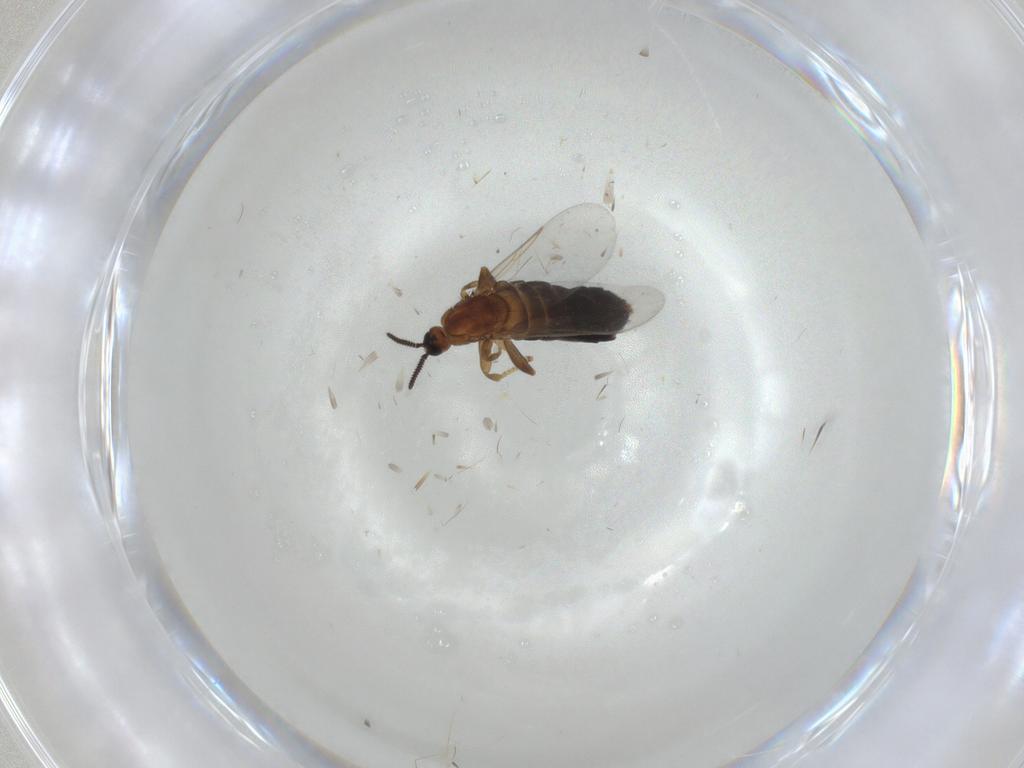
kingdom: Animalia
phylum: Arthropoda
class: Insecta
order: Diptera
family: Scatopsidae
